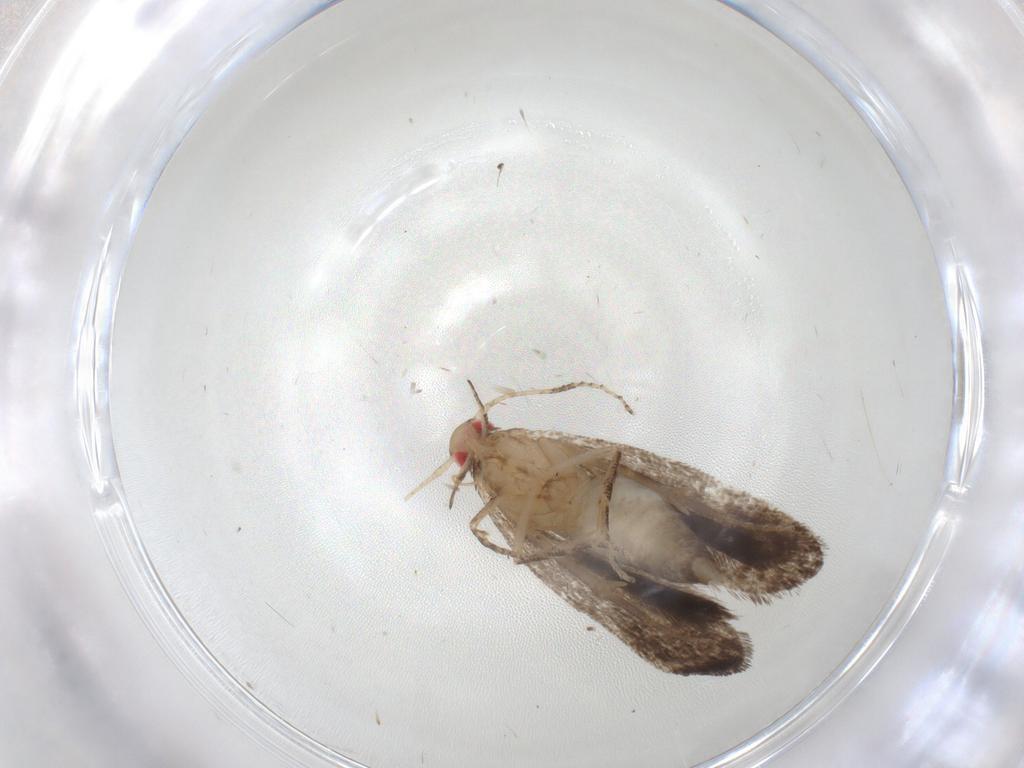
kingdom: Animalia
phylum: Arthropoda
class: Insecta
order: Lepidoptera
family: Gelechiidae
